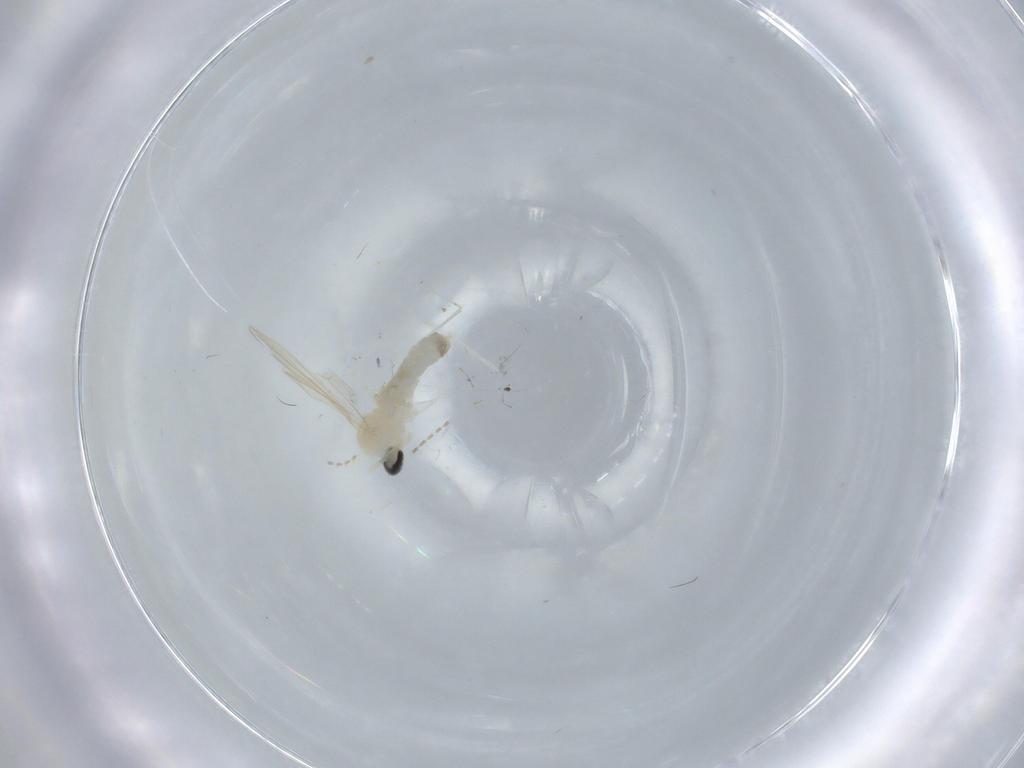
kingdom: Animalia
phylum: Arthropoda
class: Insecta
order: Diptera
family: Cecidomyiidae
